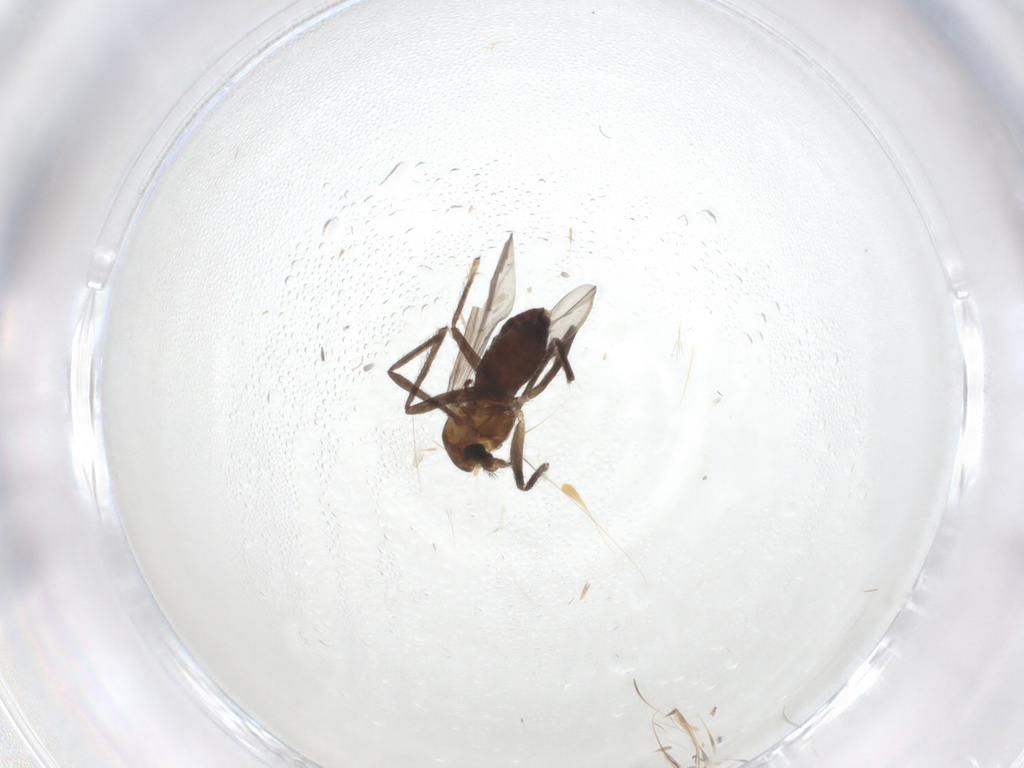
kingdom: Animalia
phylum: Arthropoda
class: Insecta
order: Diptera
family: Chironomidae
